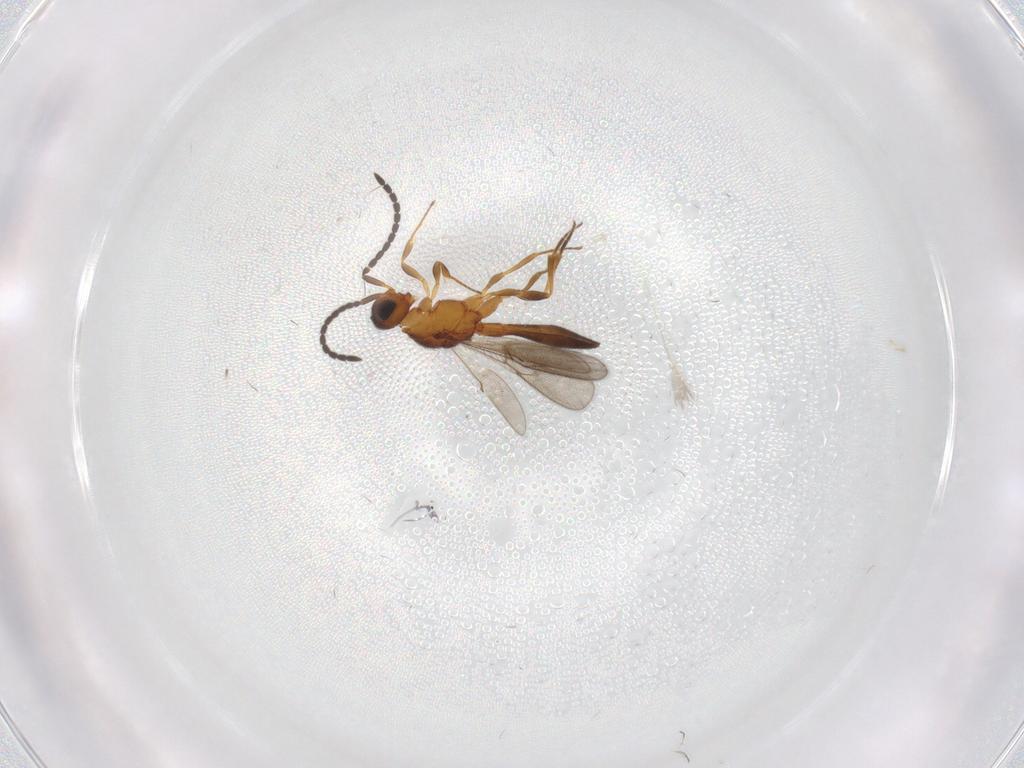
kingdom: Animalia
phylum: Arthropoda
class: Insecta
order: Hymenoptera
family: Scelionidae
